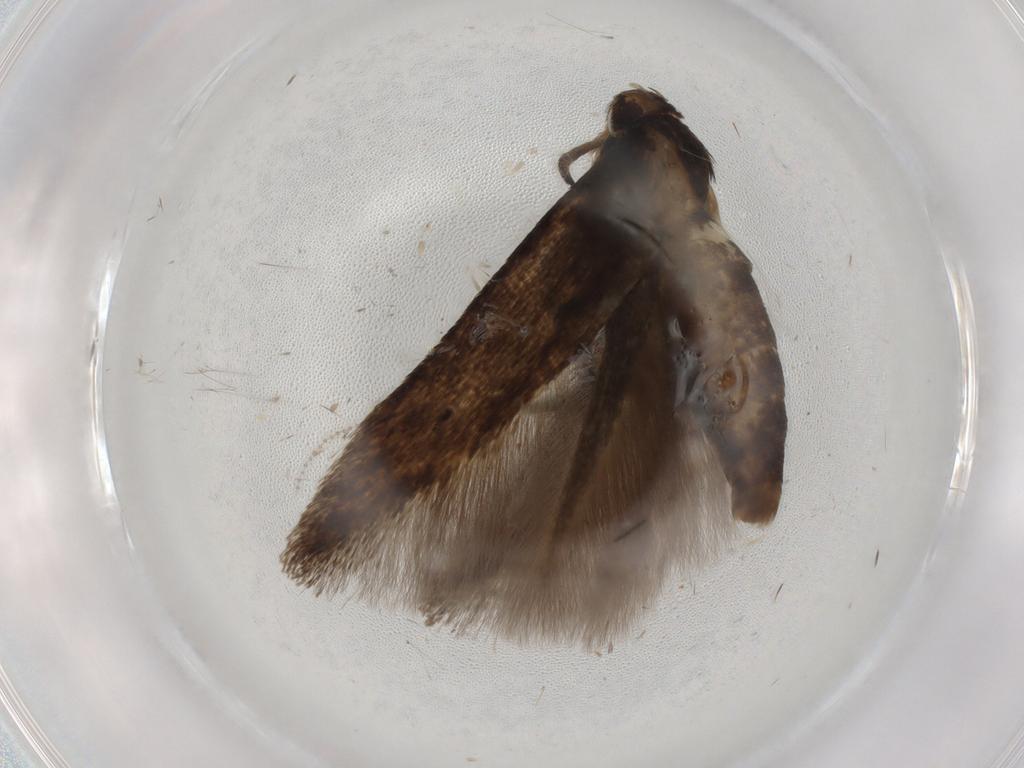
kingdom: Animalia
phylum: Arthropoda
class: Insecta
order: Lepidoptera
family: Cosmopterigidae
